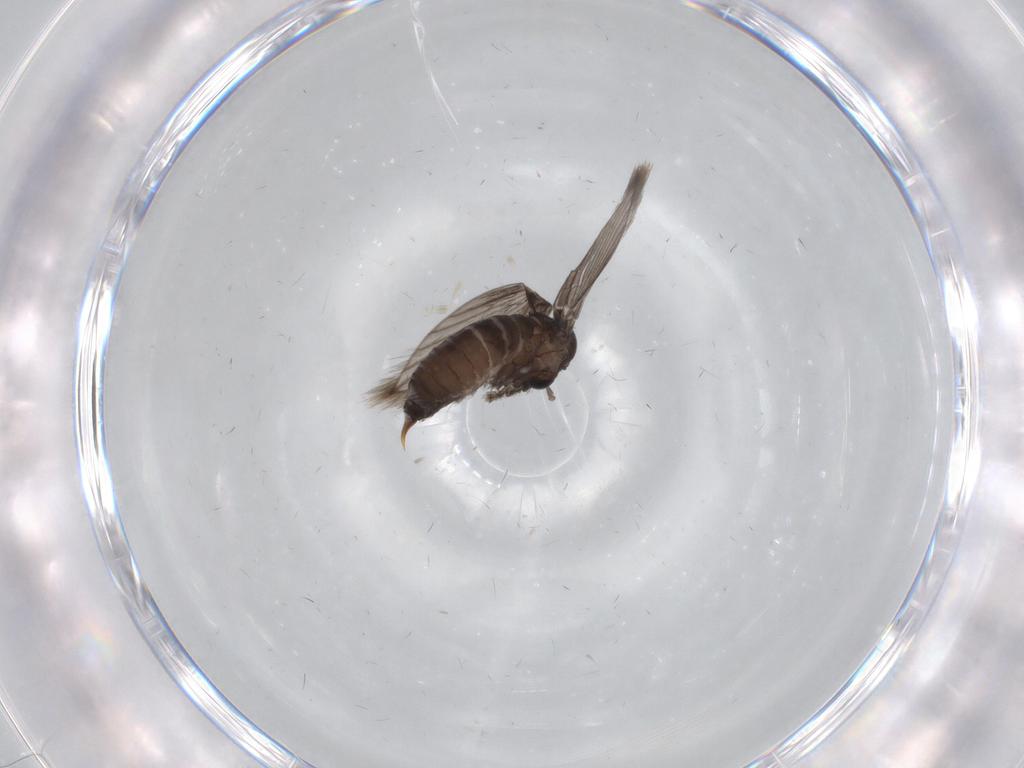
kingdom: Animalia
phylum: Arthropoda
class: Insecta
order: Diptera
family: Psychodidae
